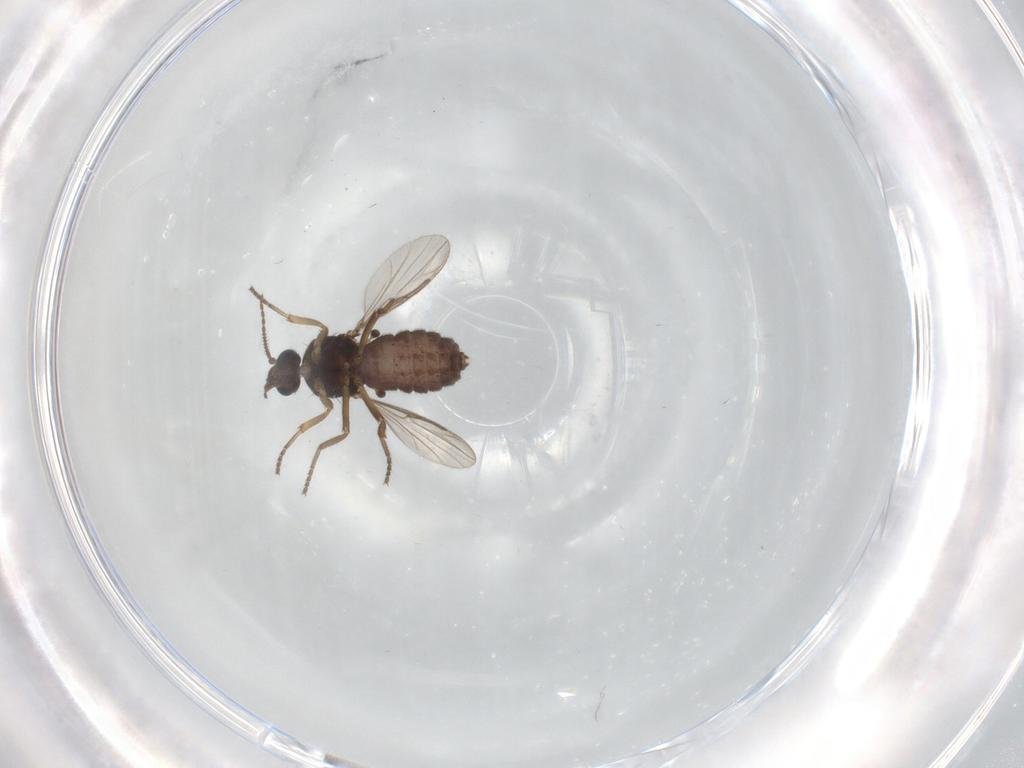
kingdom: Animalia
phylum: Arthropoda
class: Insecta
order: Diptera
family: Ceratopogonidae
